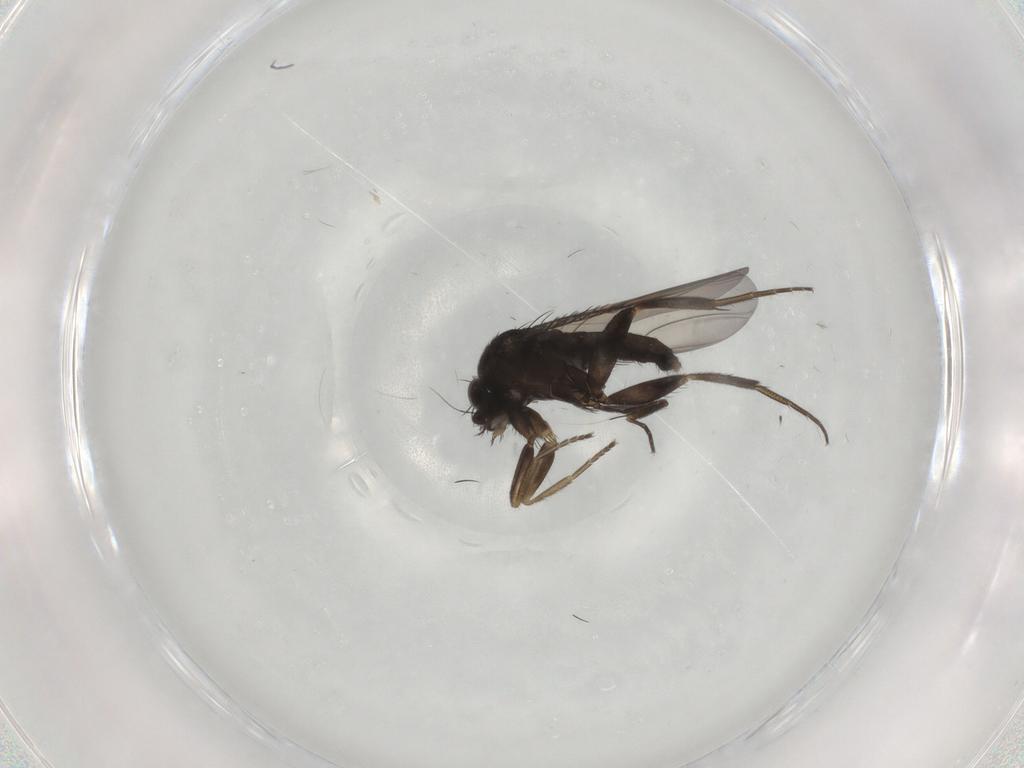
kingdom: Animalia
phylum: Arthropoda
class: Insecta
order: Diptera
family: Phoridae
